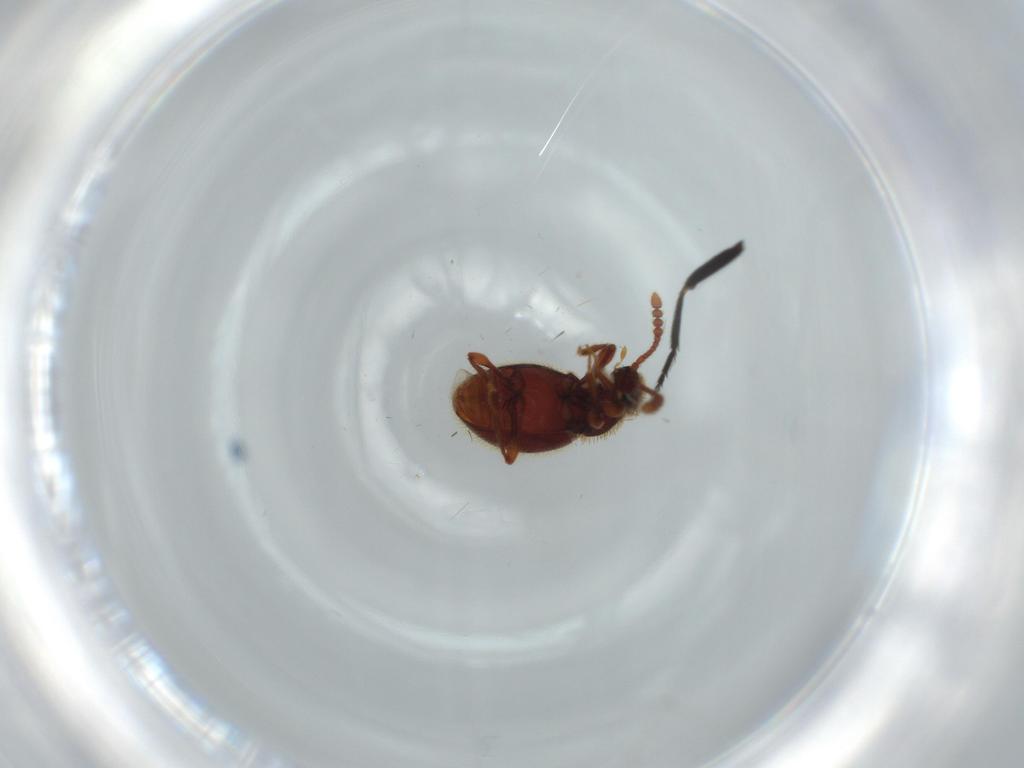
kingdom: Animalia
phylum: Arthropoda
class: Insecta
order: Coleoptera
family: Elateridae
